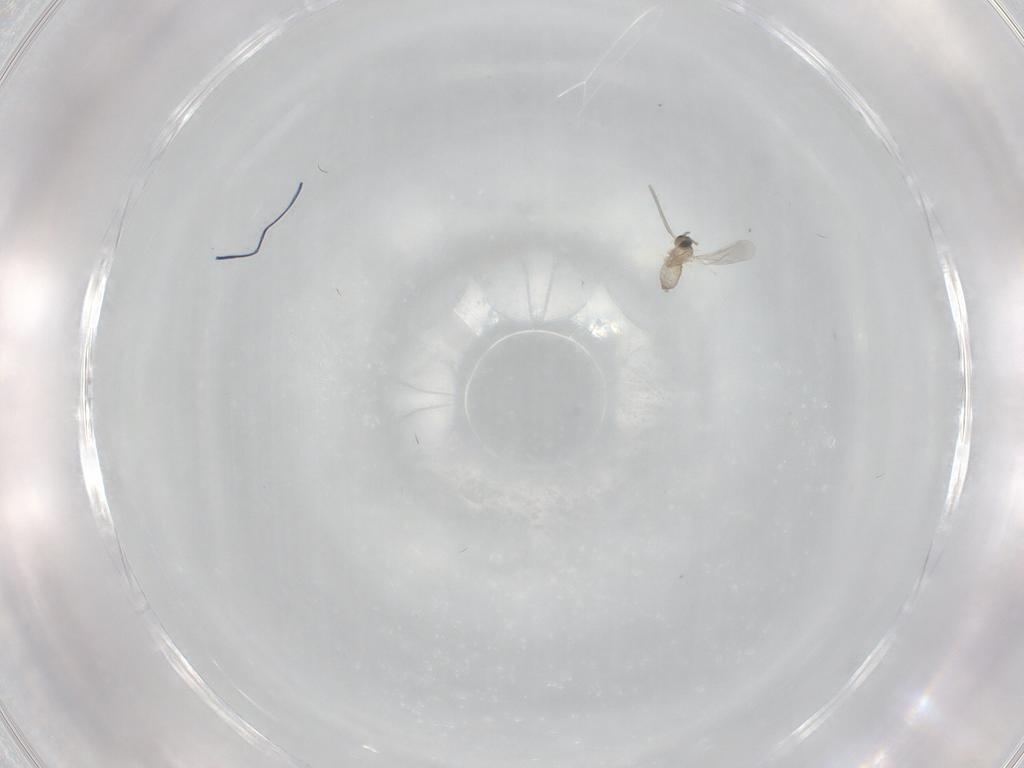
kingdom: Animalia
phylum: Arthropoda
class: Insecta
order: Diptera
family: Cecidomyiidae
